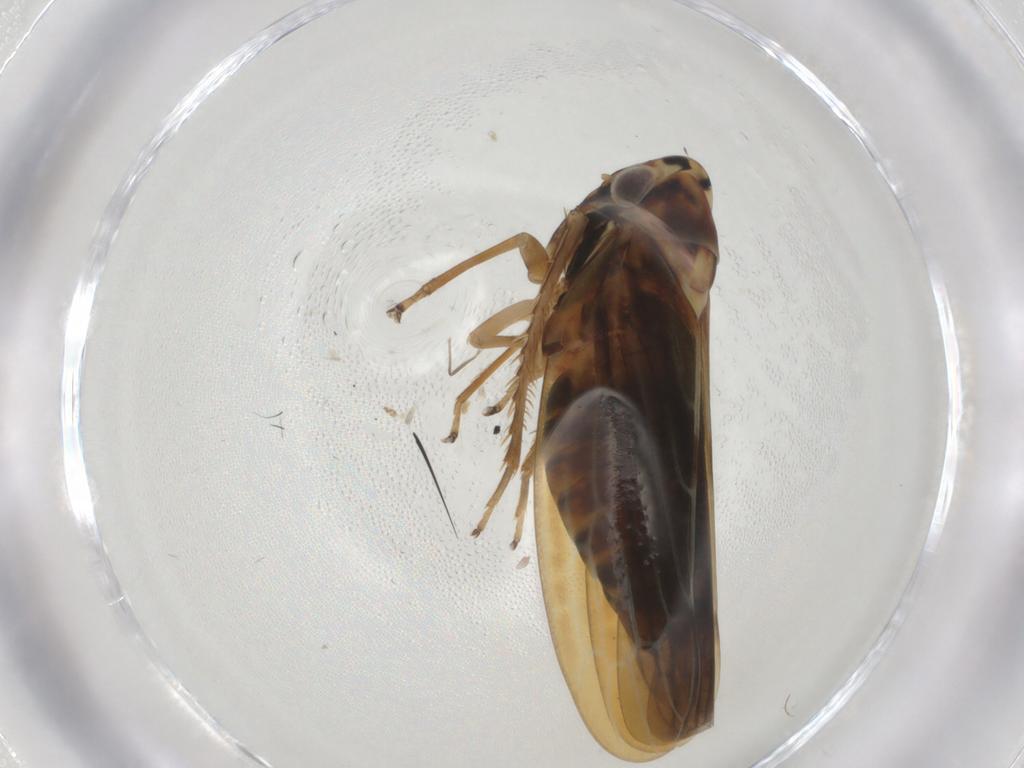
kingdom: Animalia
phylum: Arthropoda
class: Insecta
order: Hemiptera
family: Cicadellidae
